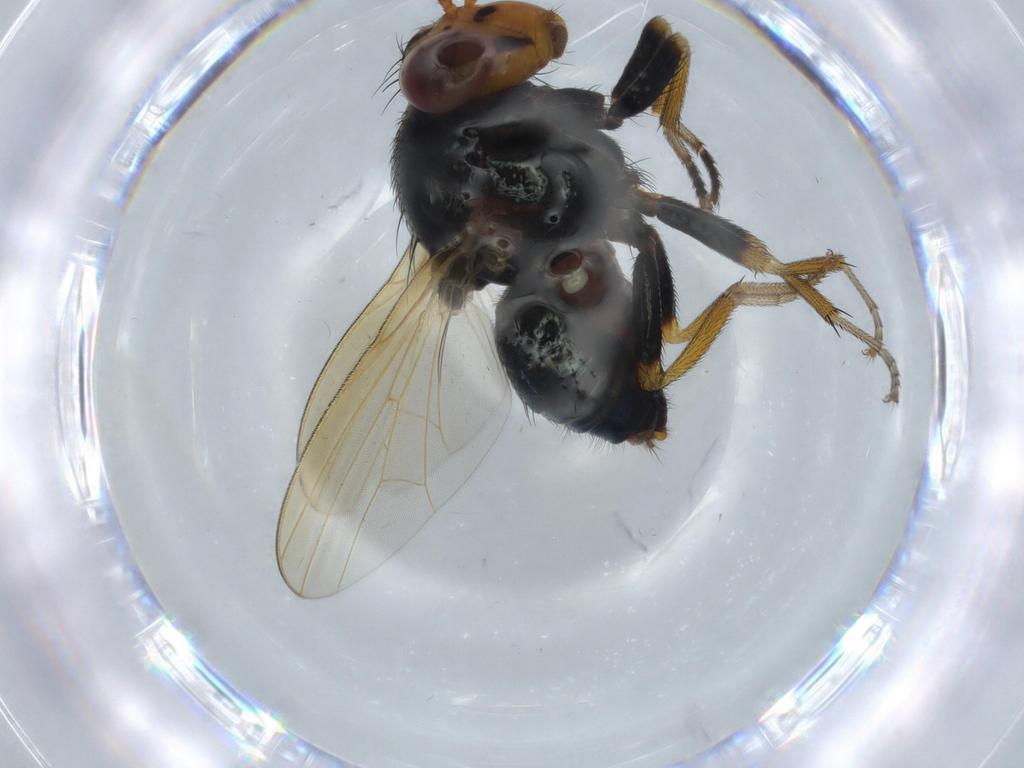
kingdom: Animalia
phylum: Arthropoda
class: Insecta
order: Diptera
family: Lauxaniidae
